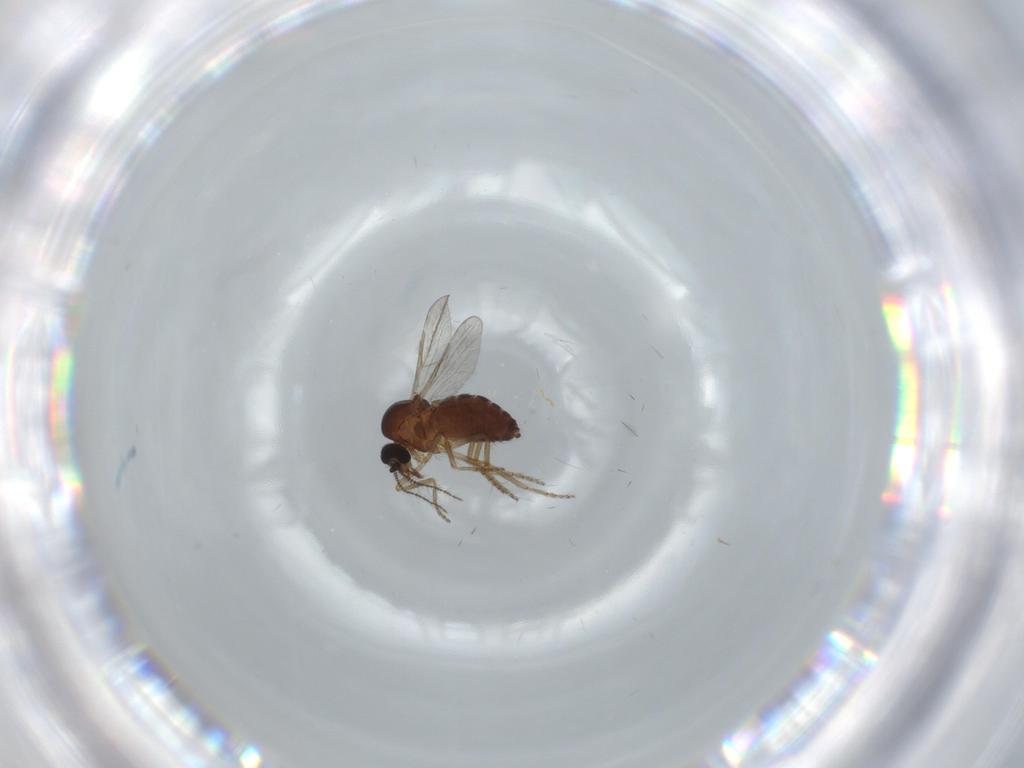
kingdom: Animalia
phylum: Arthropoda
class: Insecta
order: Diptera
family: Ceratopogonidae
